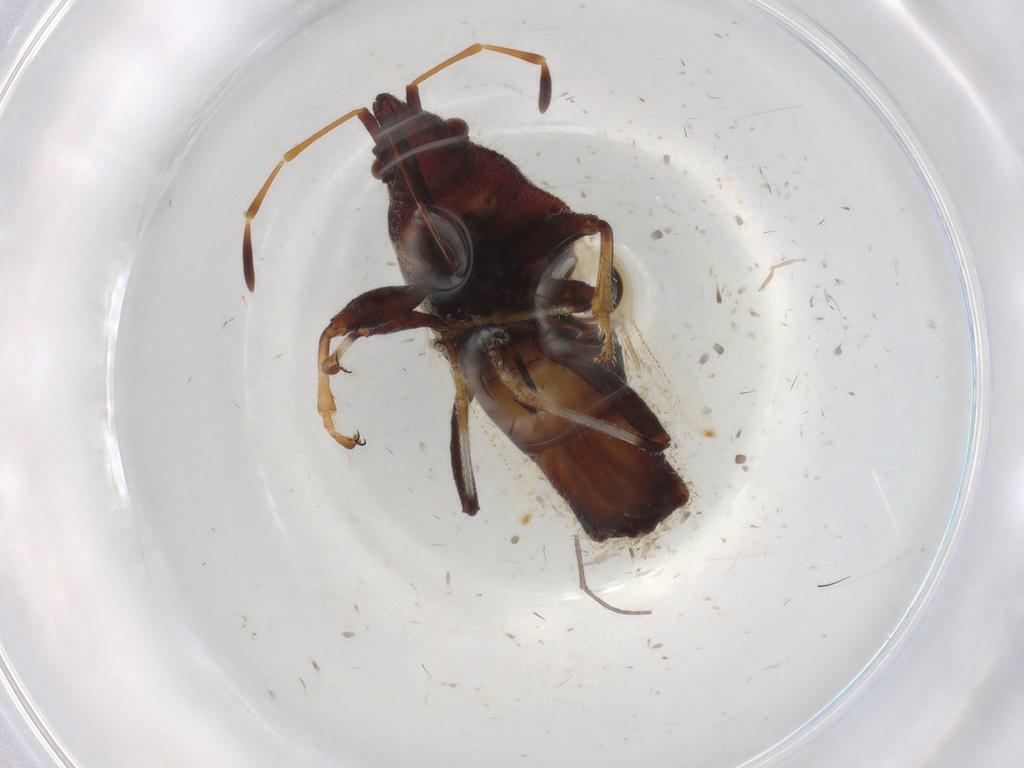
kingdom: Animalia
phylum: Arthropoda
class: Insecta
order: Hemiptera
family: Oxycarenidae
